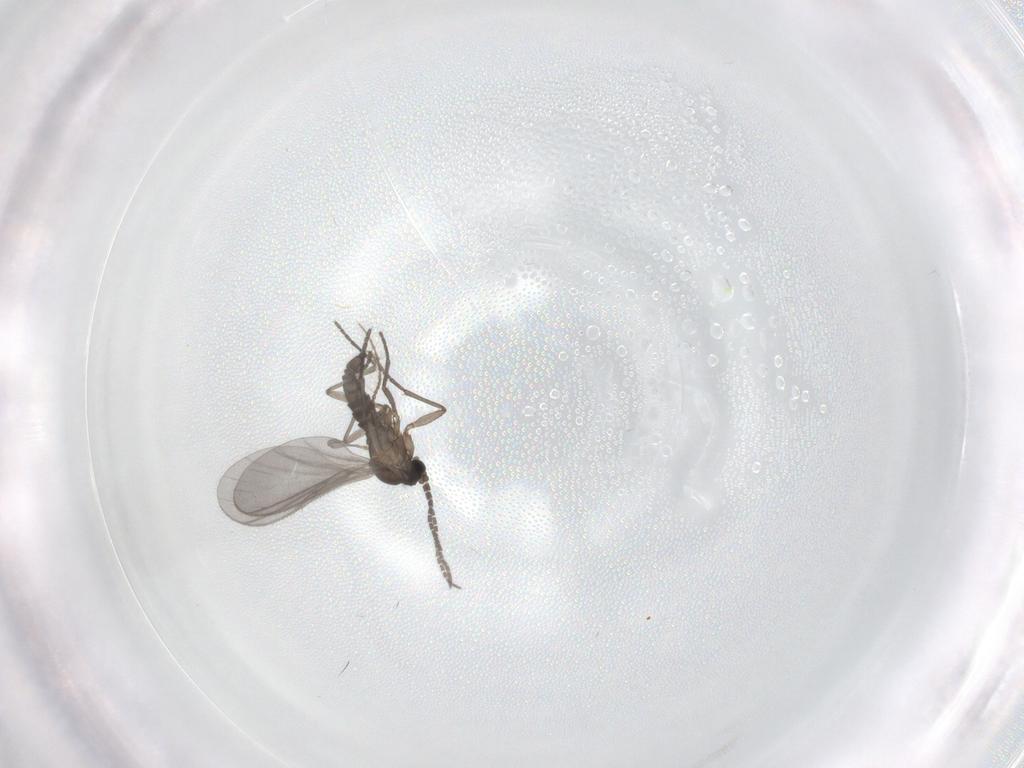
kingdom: Animalia
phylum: Arthropoda
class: Insecta
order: Diptera
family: Sciaridae
